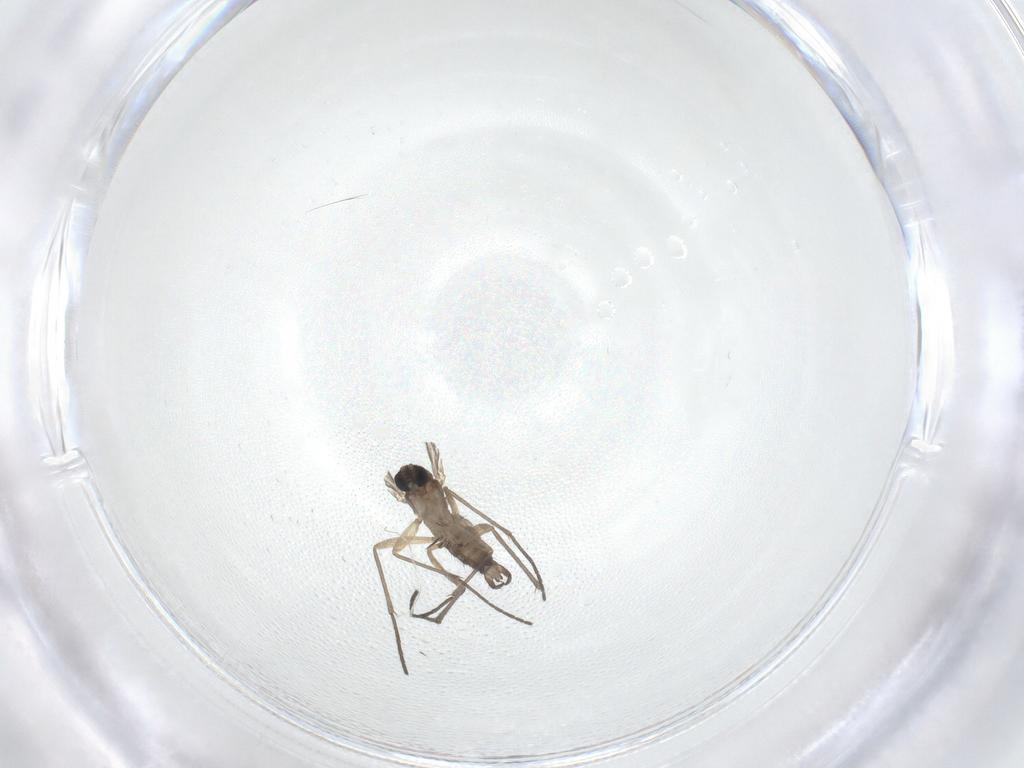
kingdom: Animalia
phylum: Arthropoda
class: Insecta
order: Diptera
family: Sciaridae
